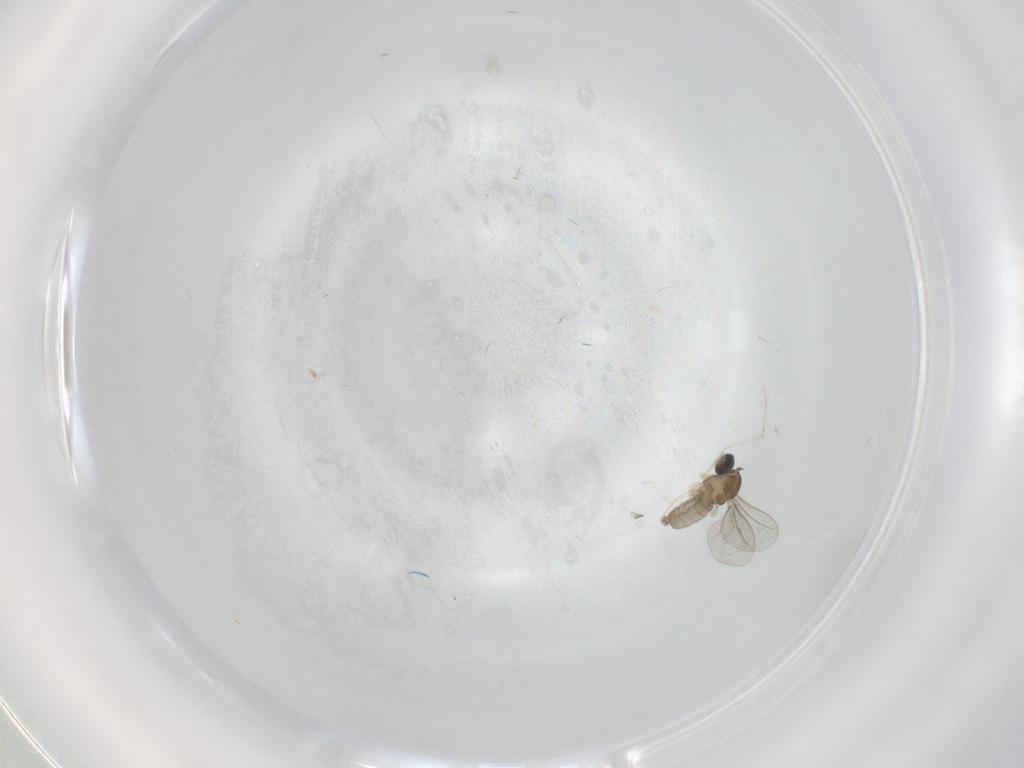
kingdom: Animalia
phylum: Arthropoda
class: Insecta
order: Diptera
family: Cecidomyiidae
